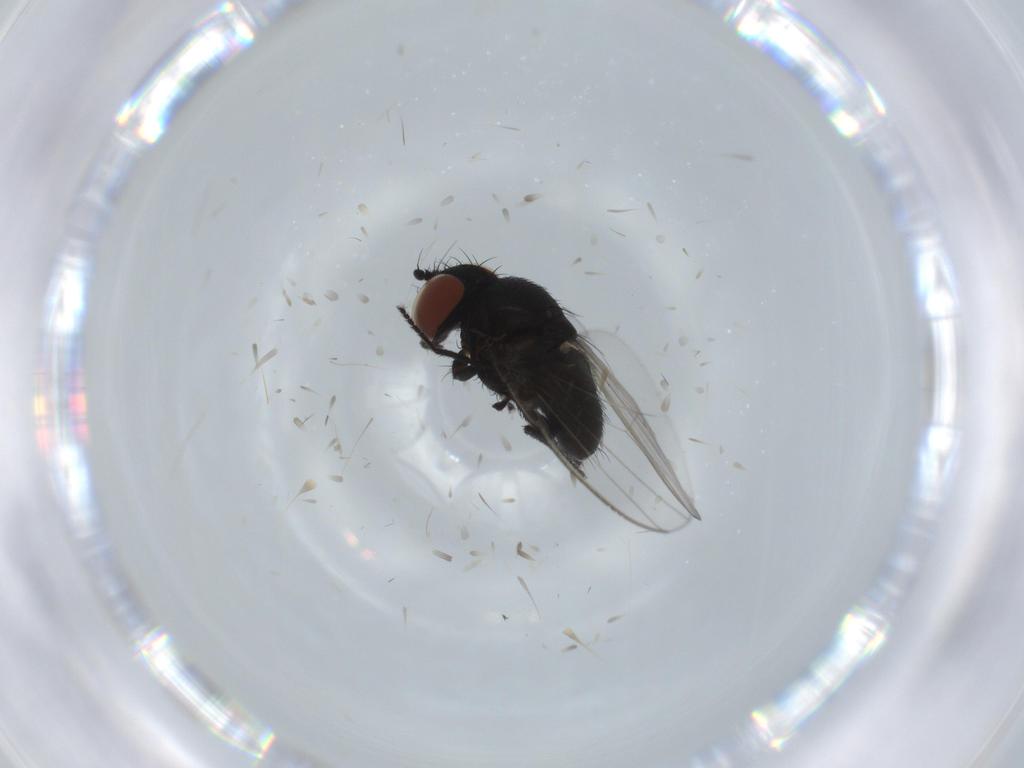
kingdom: Animalia
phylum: Arthropoda
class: Insecta
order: Diptera
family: Milichiidae
